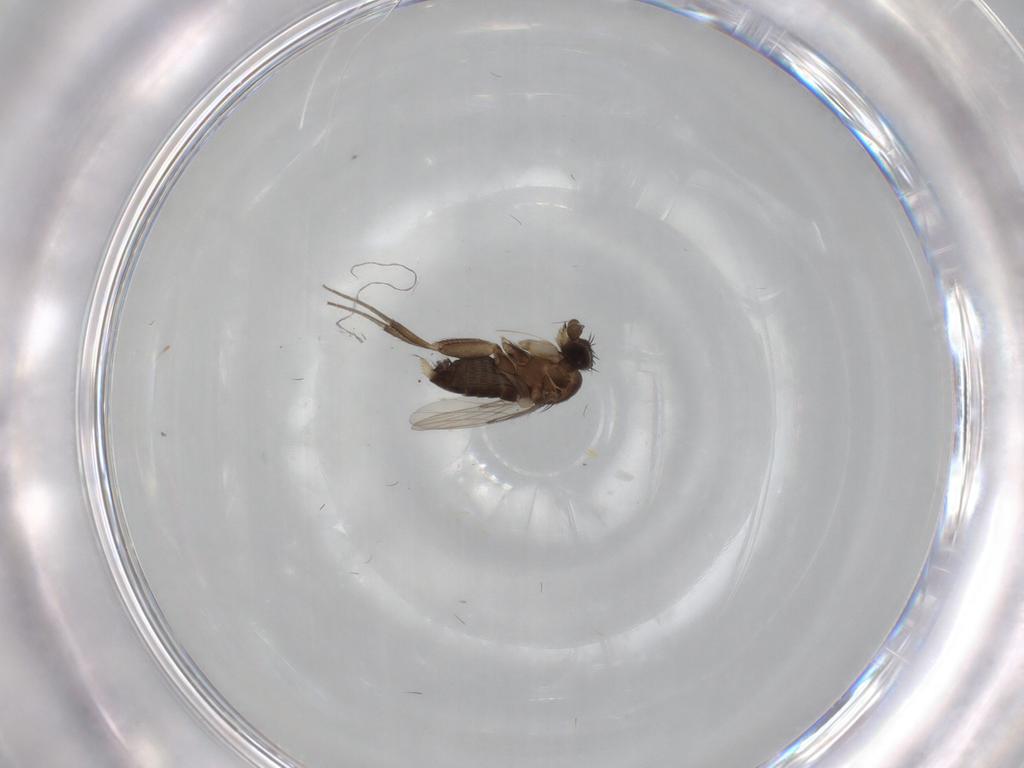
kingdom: Animalia
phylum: Arthropoda
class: Insecta
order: Diptera
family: Phoridae
